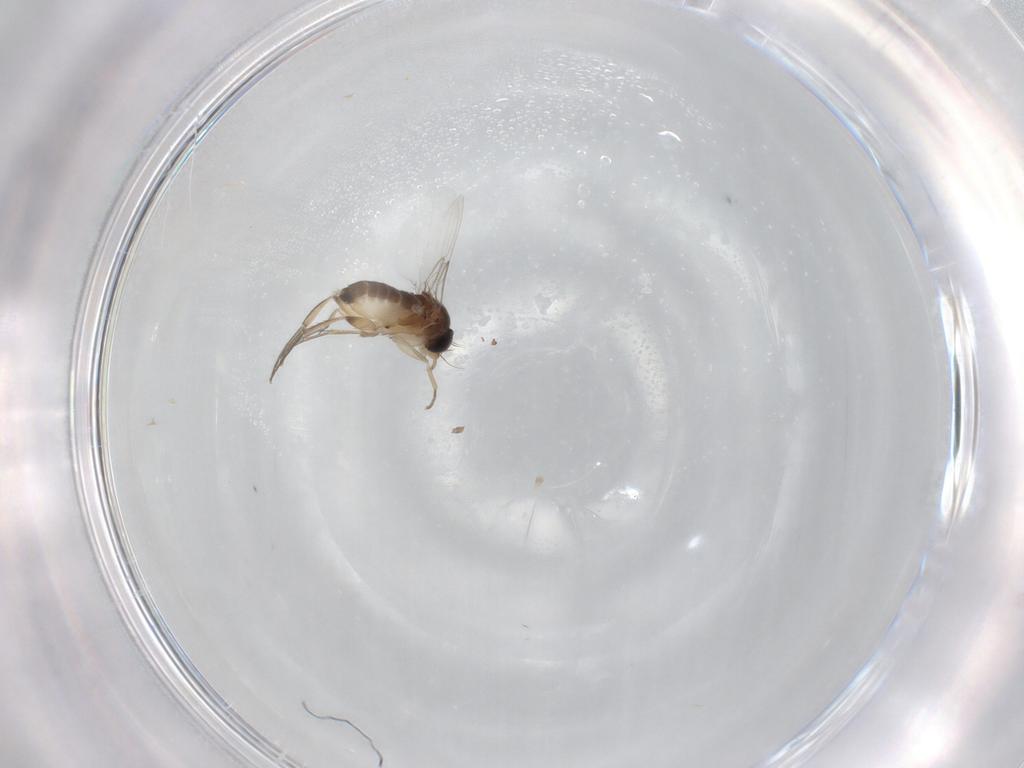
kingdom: Animalia
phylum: Arthropoda
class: Insecta
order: Diptera
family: Phoridae
